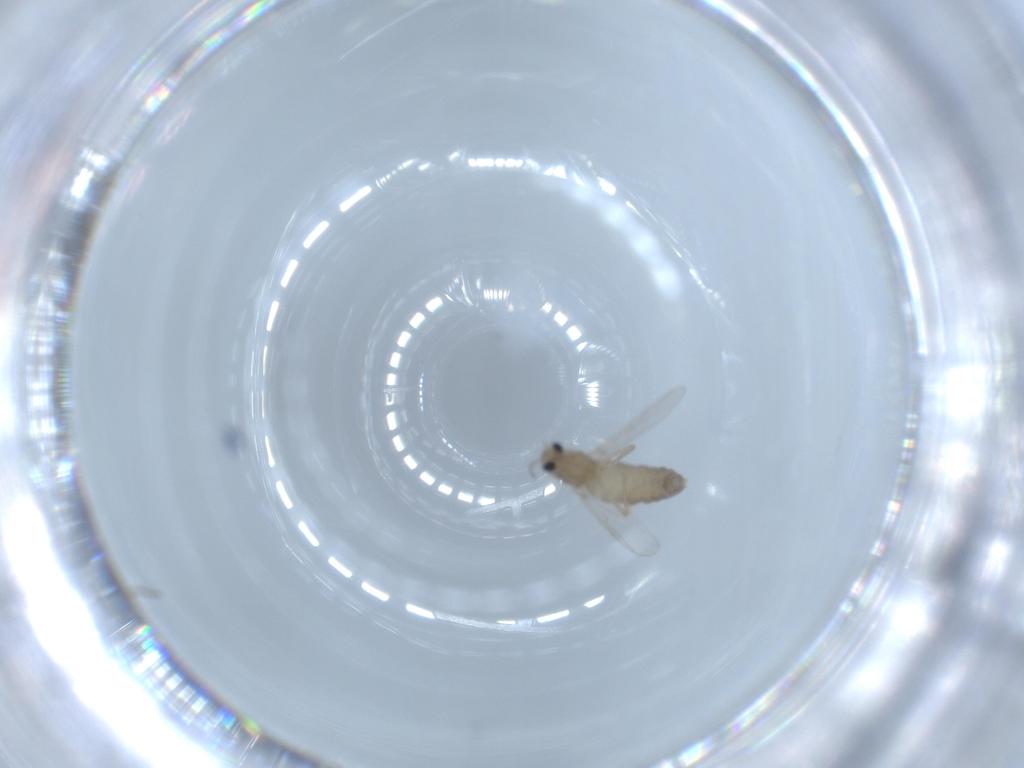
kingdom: Animalia
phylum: Arthropoda
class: Insecta
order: Diptera
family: Chironomidae
